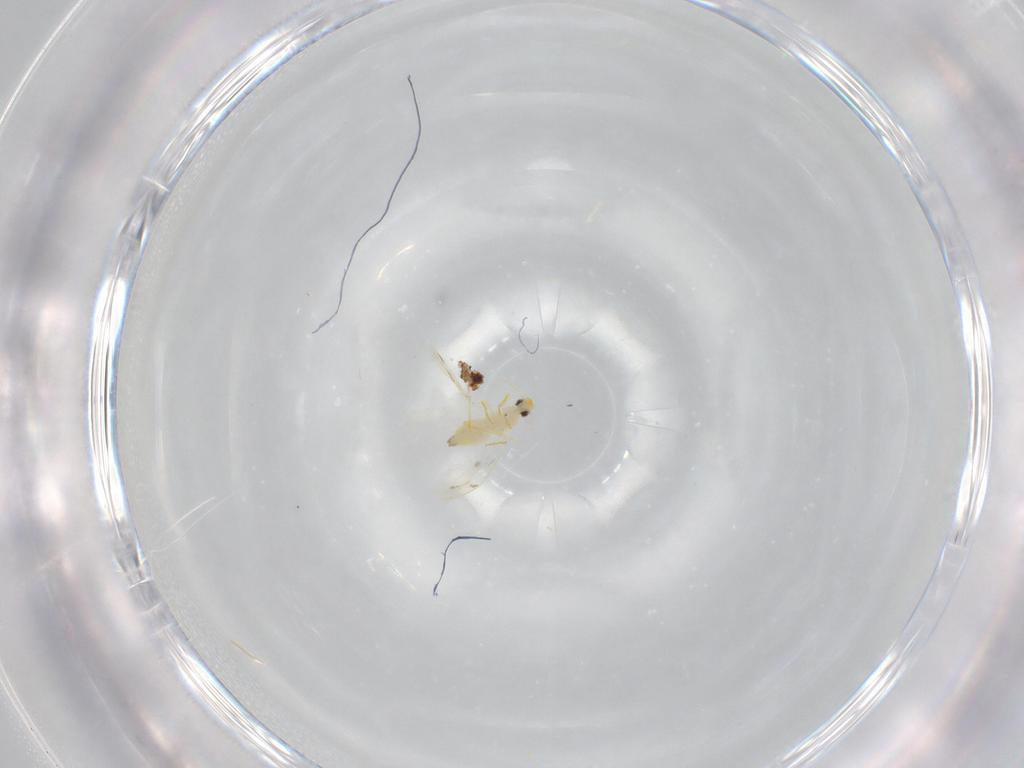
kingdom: Animalia
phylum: Arthropoda
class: Insecta
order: Hemiptera
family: Aleyrodidae
